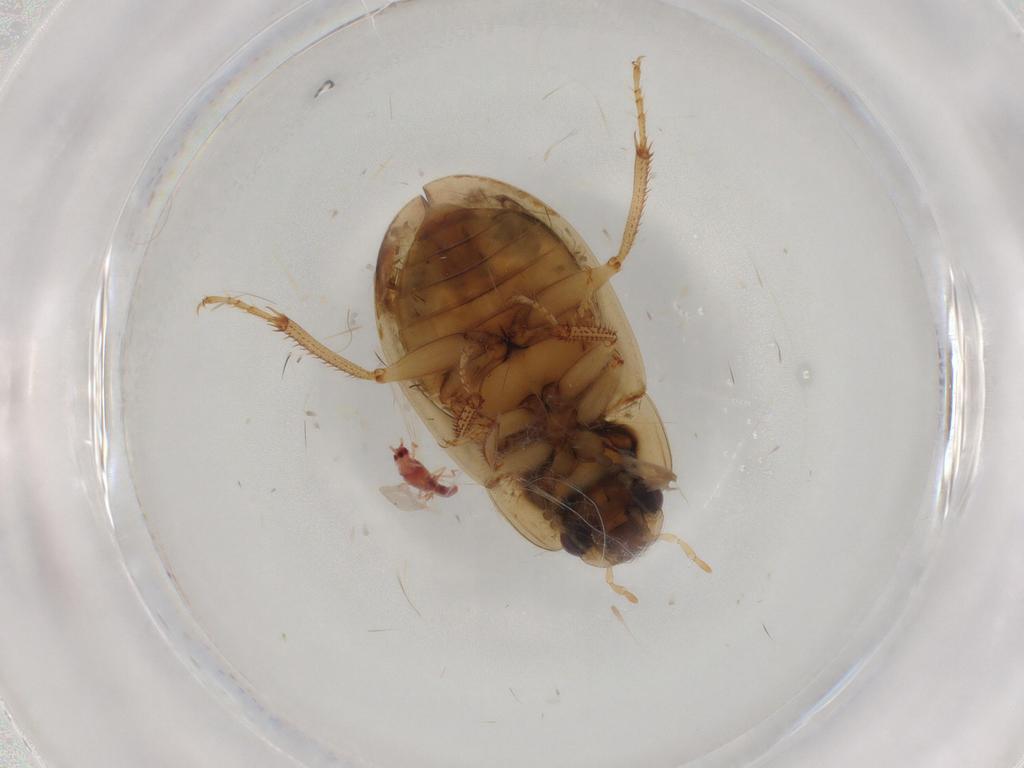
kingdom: Animalia
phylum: Arthropoda
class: Insecta
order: Coleoptera
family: Hydrophilidae
